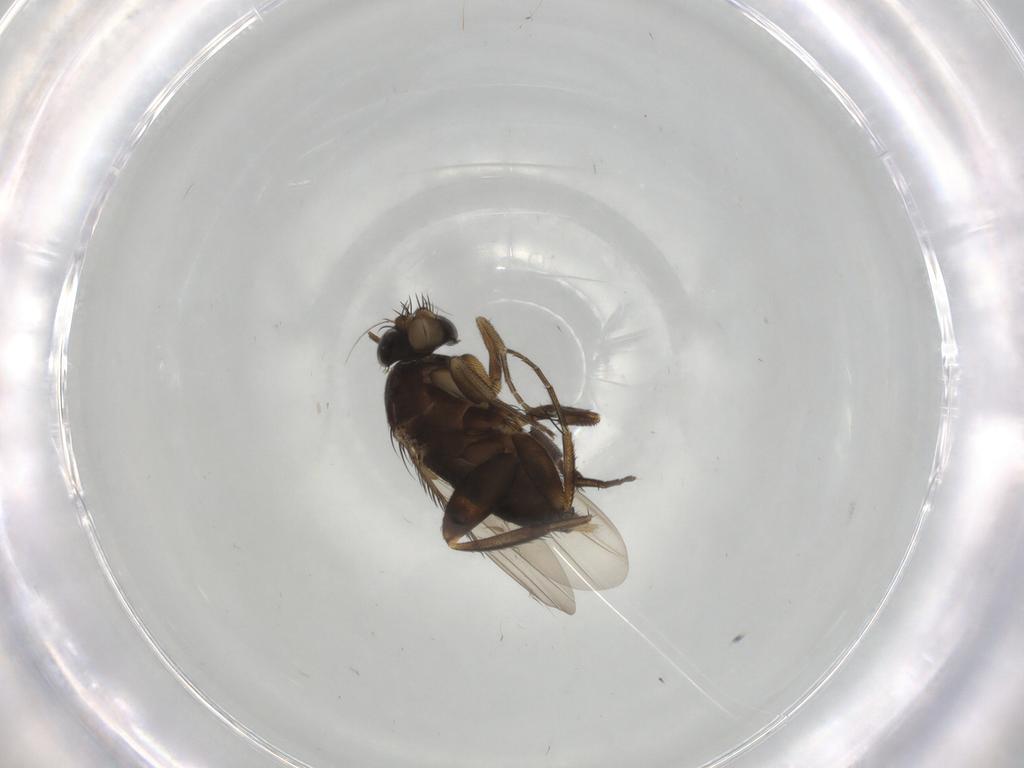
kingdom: Animalia
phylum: Arthropoda
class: Insecta
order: Diptera
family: Phoridae
